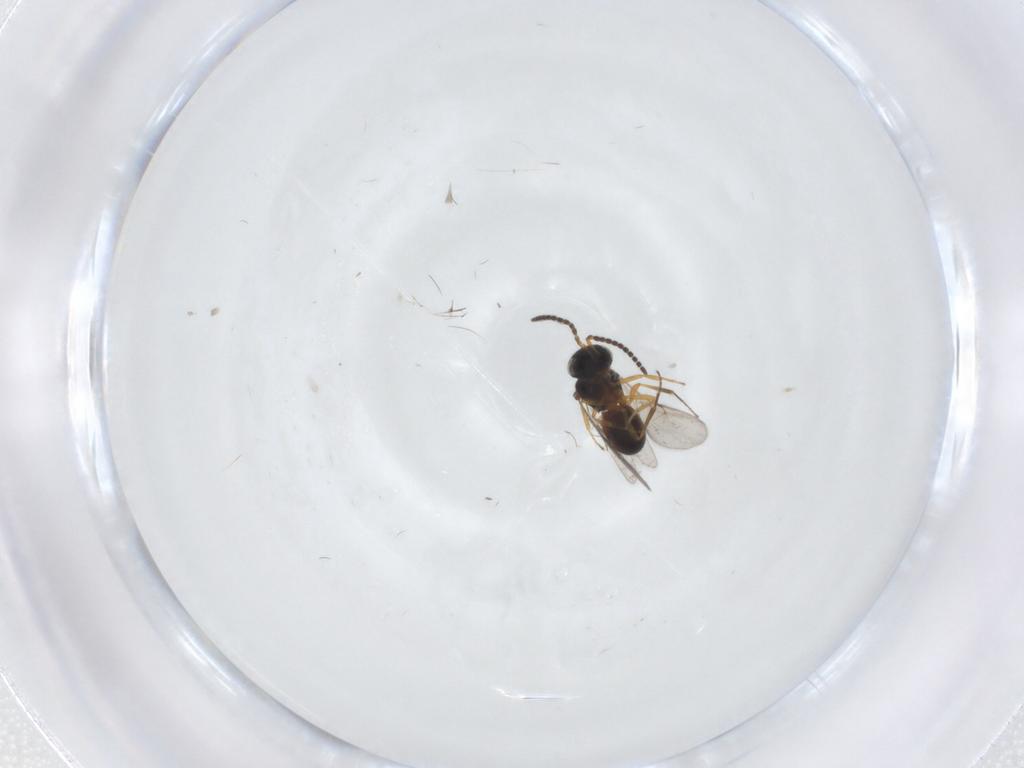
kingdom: Animalia
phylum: Arthropoda
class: Insecta
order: Hymenoptera
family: Scelionidae
